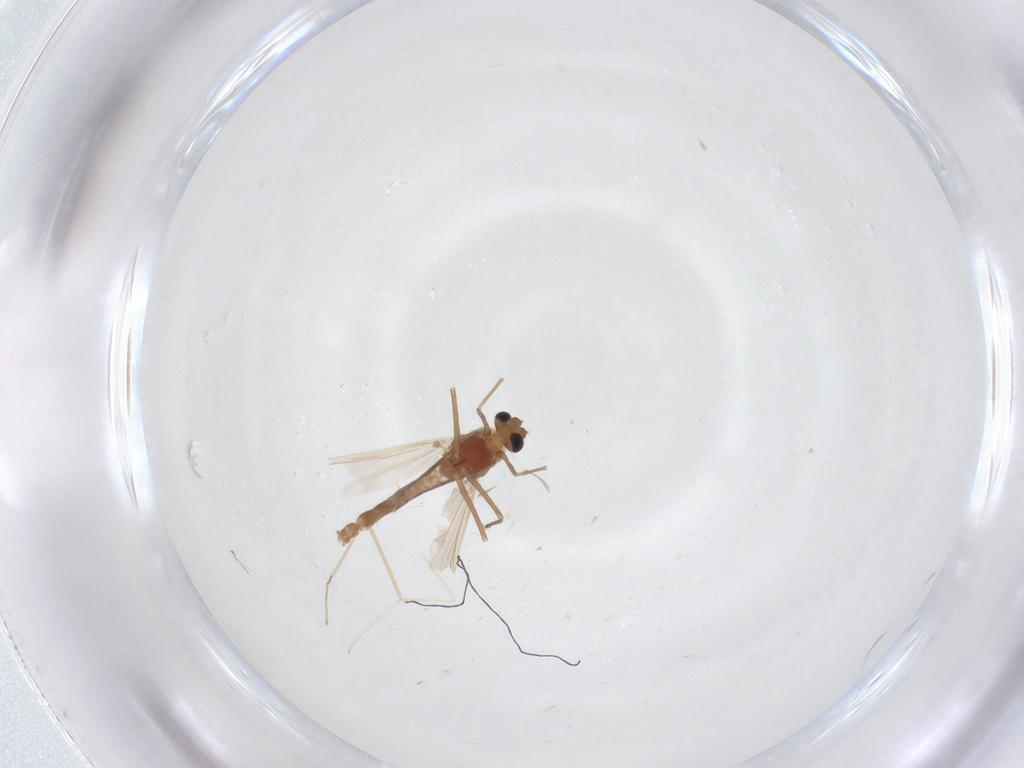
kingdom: Animalia
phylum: Arthropoda
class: Insecta
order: Diptera
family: Chironomidae
